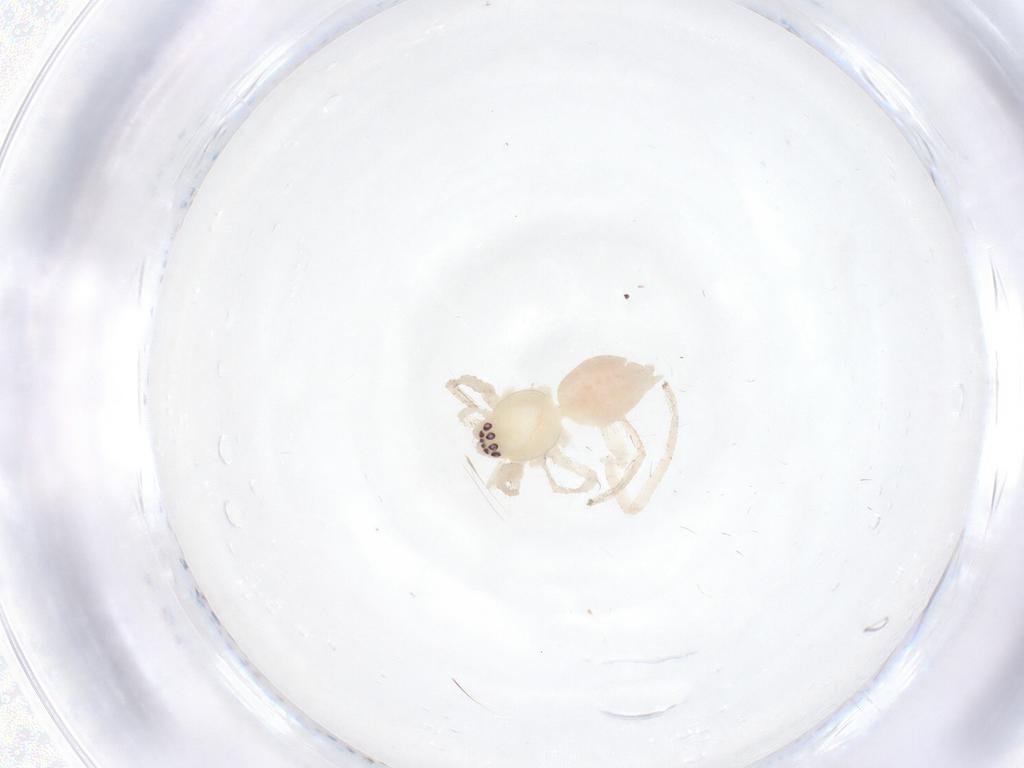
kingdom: Animalia
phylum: Arthropoda
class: Arachnida
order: Araneae
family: Anyphaenidae
